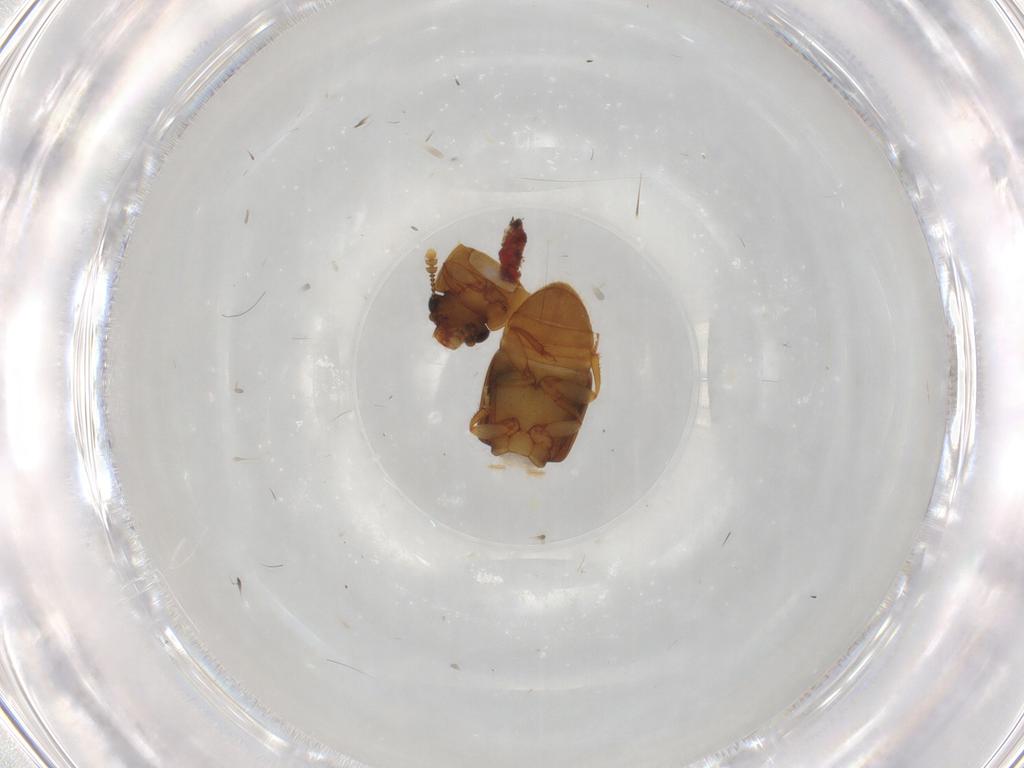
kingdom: Animalia
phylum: Arthropoda
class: Insecta
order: Coleoptera
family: Nitidulidae
